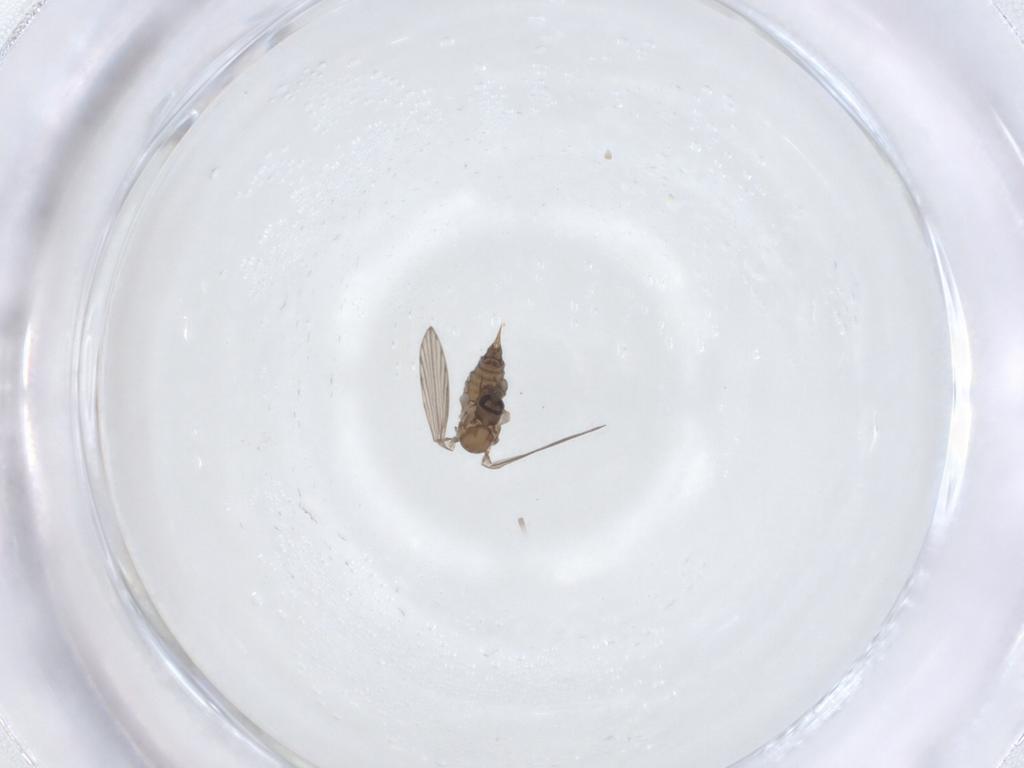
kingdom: Animalia
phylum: Arthropoda
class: Insecta
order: Diptera
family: Psychodidae
